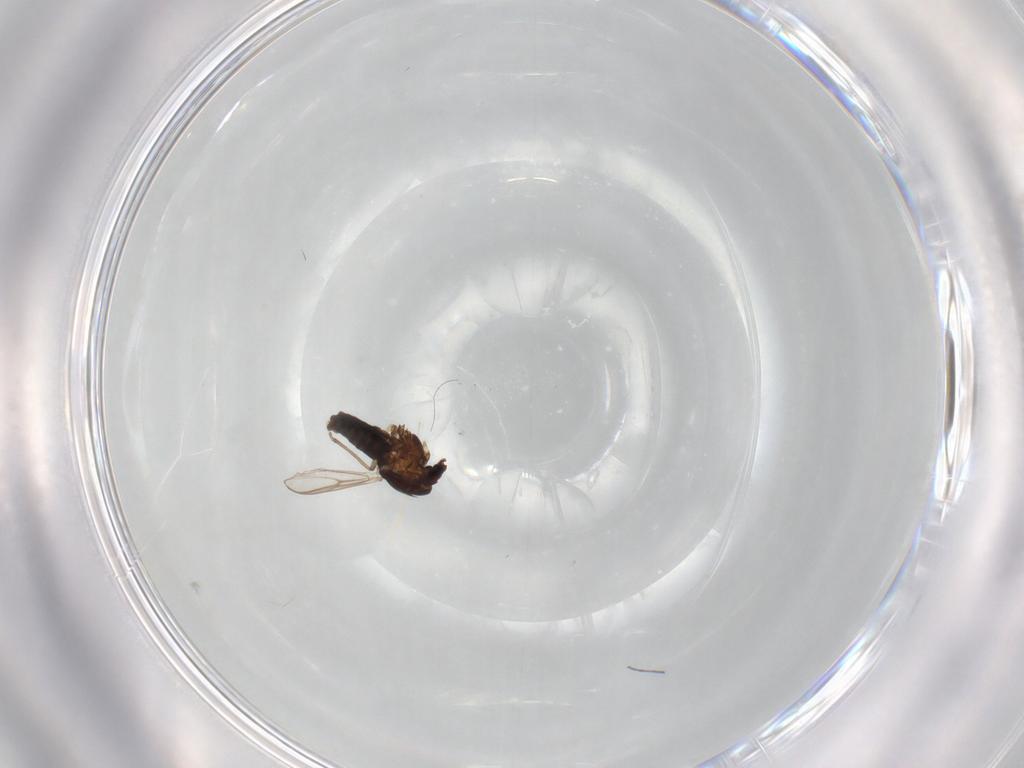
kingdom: Animalia
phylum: Arthropoda
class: Insecta
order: Diptera
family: Chironomidae
